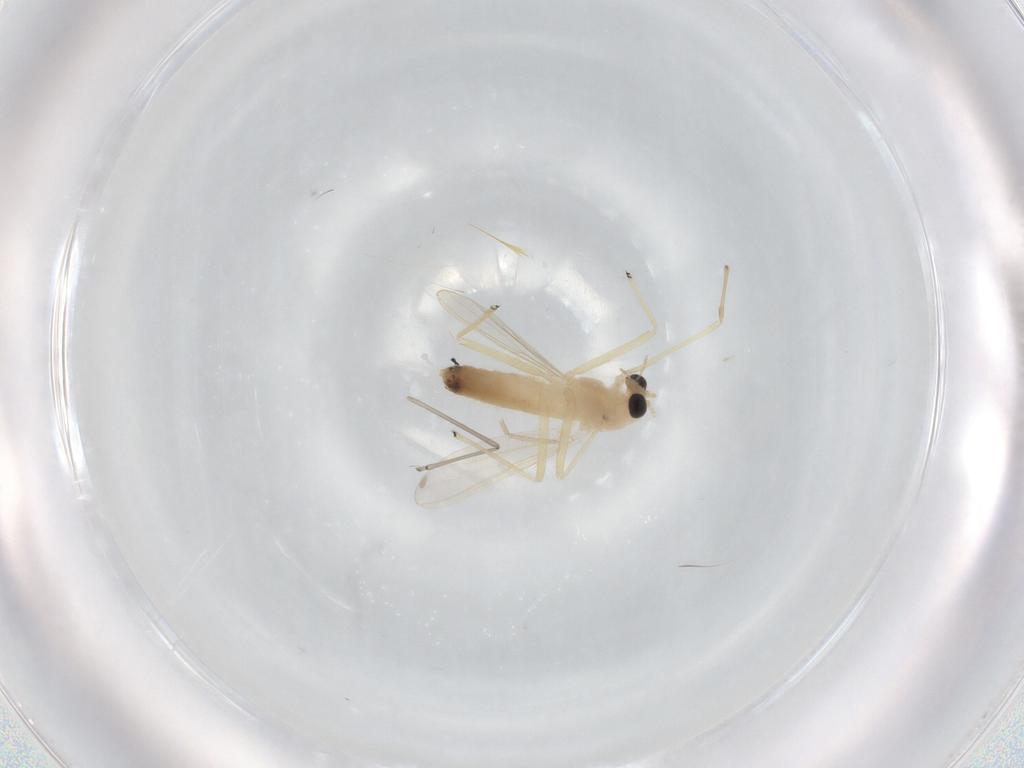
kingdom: Animalia
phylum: Arthropoda
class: Insecta
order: Diptera
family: Chironomidae
